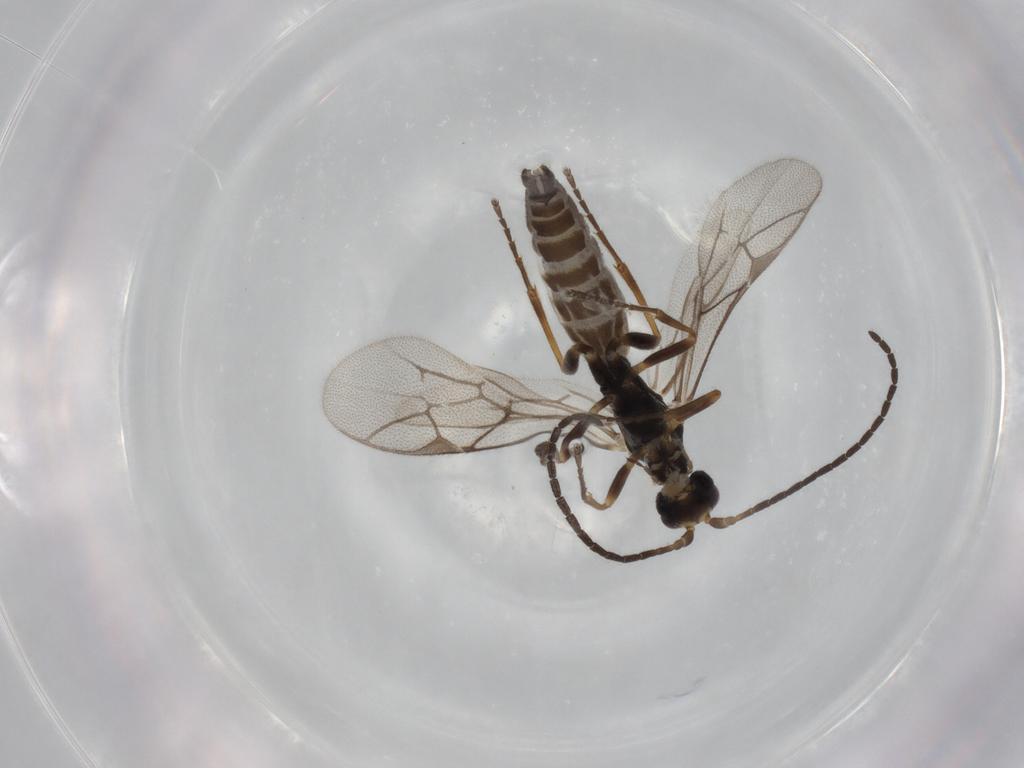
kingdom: Animalia
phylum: Arthropoda
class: Insecta
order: Hymenoptera
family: Ichneumonidae
